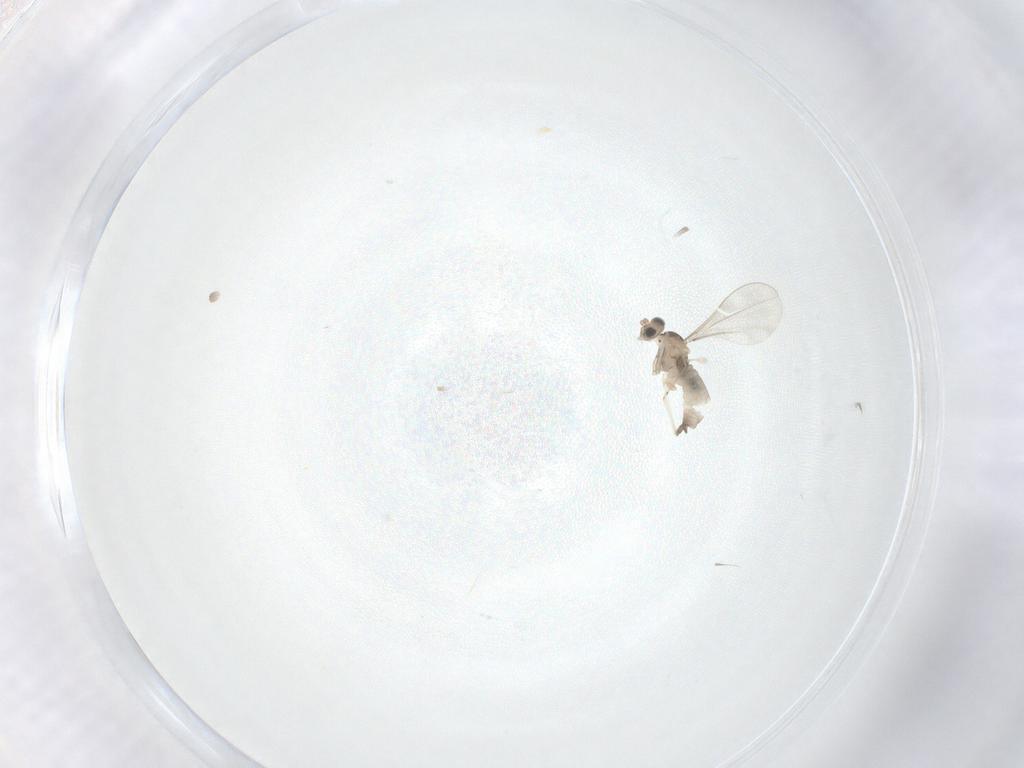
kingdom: Animalia
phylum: Arthropoda
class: Insecta
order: Diptera
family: Cecidomyiidae
